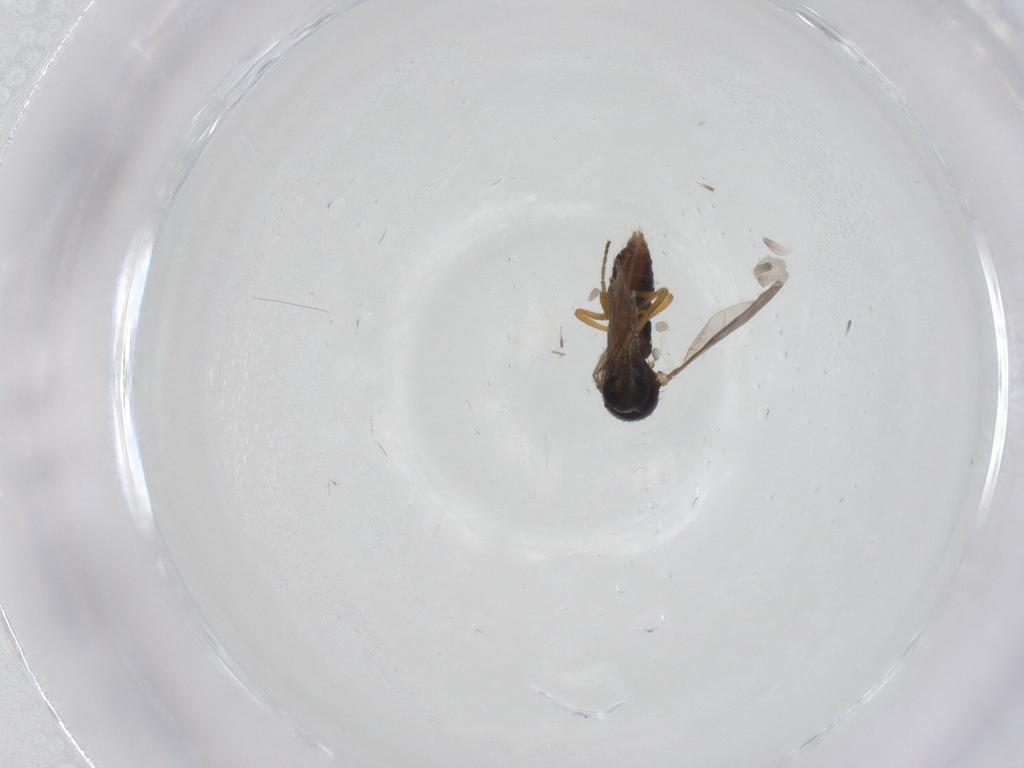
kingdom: Animalia
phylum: Arthropoda
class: Insecta
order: Diptera
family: Ceratopogonidae
